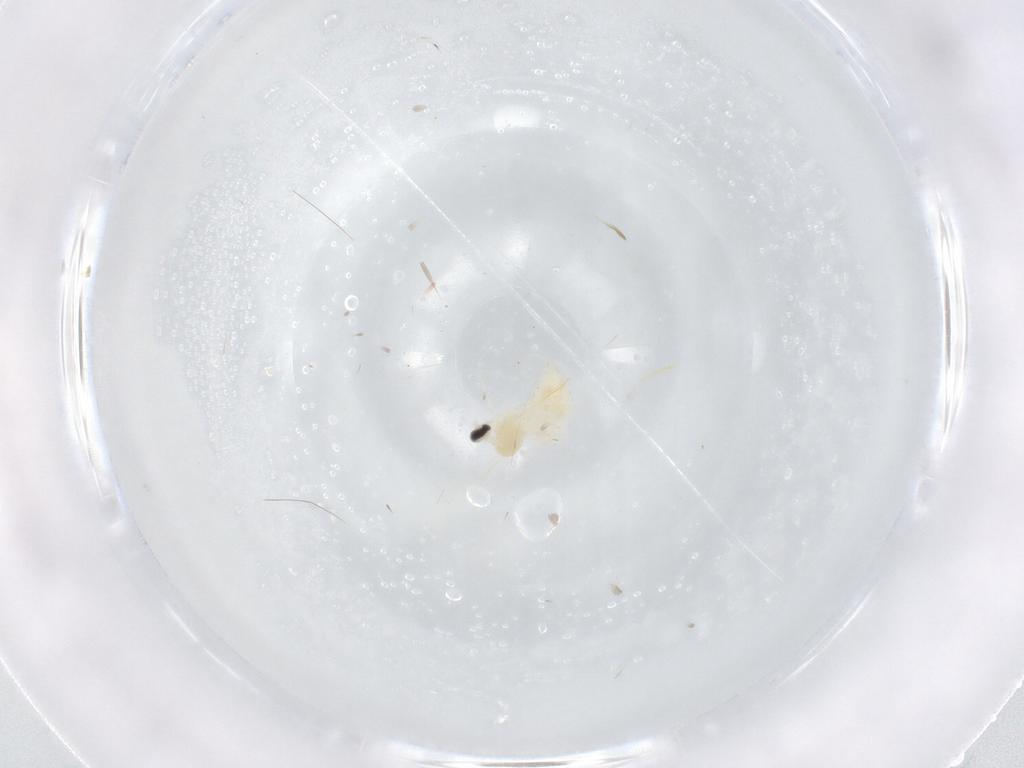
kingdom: Animalia
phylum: Arthropoda
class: Insecta
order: Diptera
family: Cecidomyiidae
